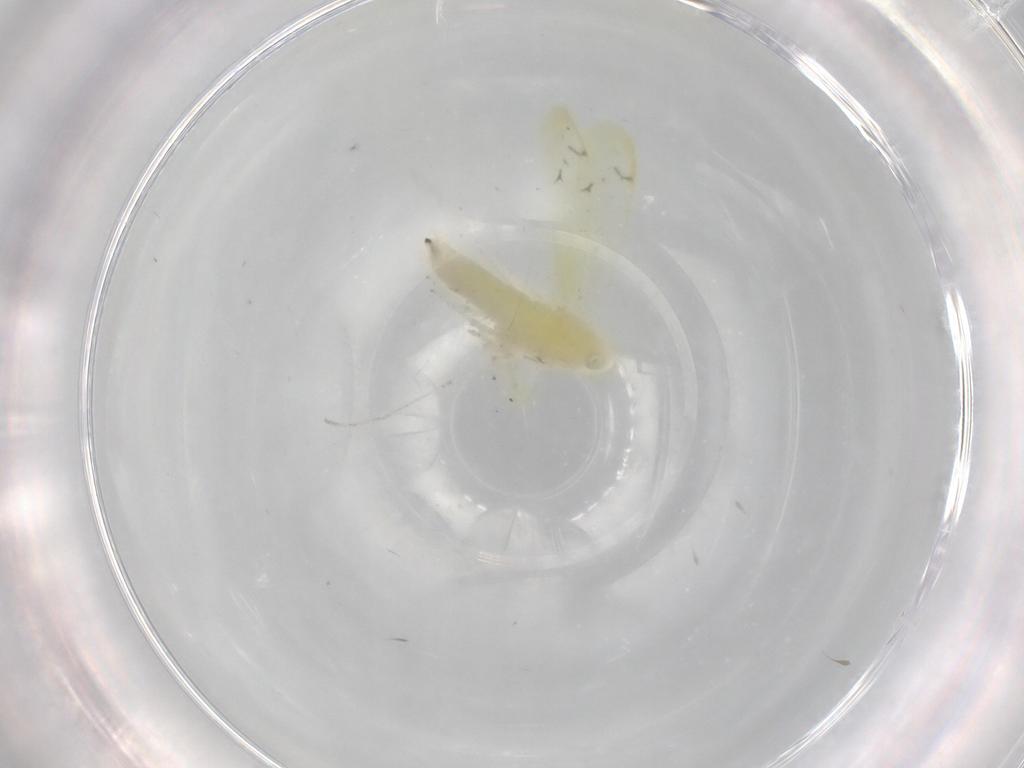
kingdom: Animalia
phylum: Arthropoda
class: Insecta
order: Hemiptera
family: Cicadellidae
